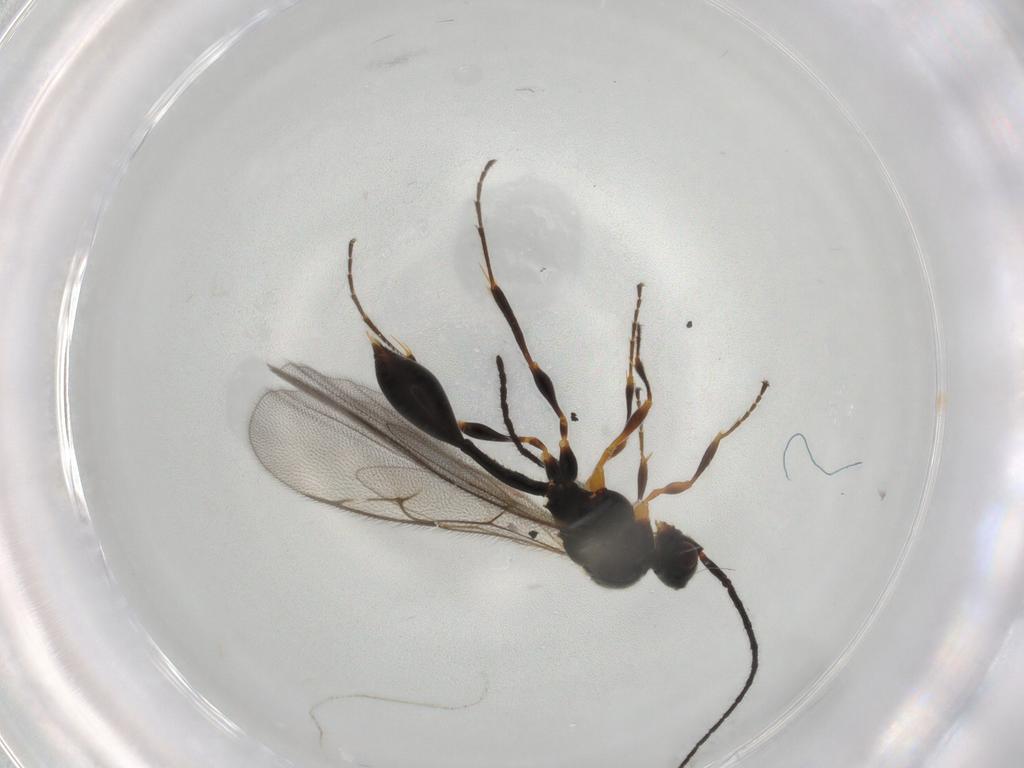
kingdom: Animalia
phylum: Arthropoda
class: Insecta
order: Hymenoptera
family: Diapriidae
